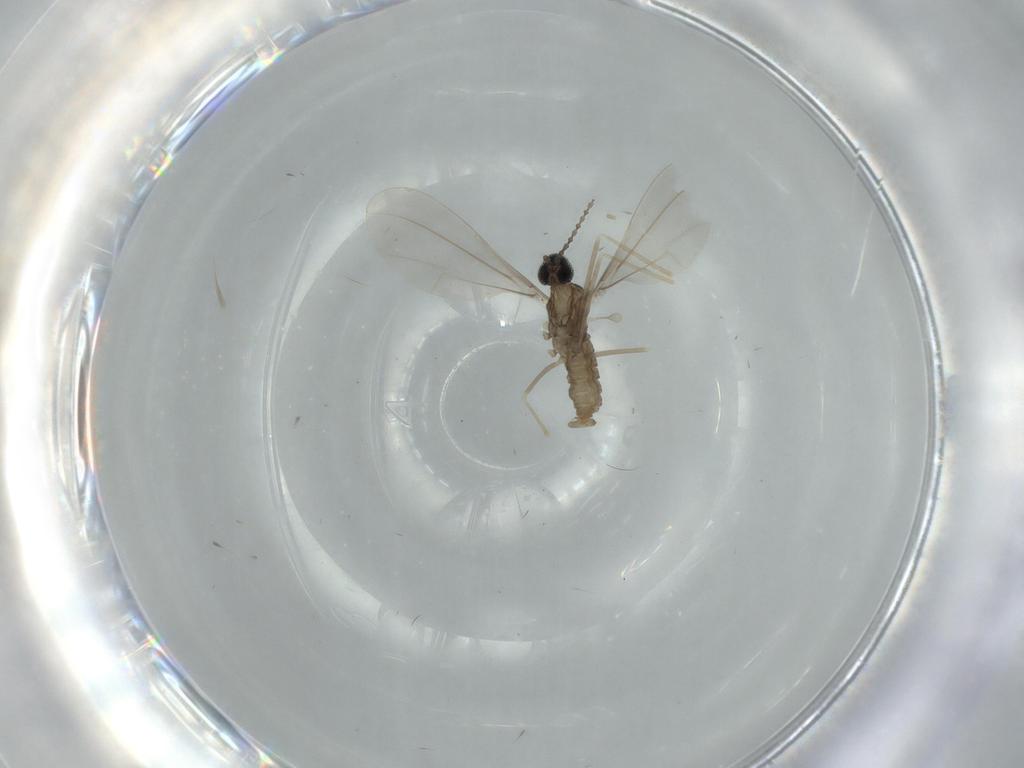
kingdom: Animalia
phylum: Arthropoda
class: Insecta
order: Diptera
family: Cecidomyiidae
